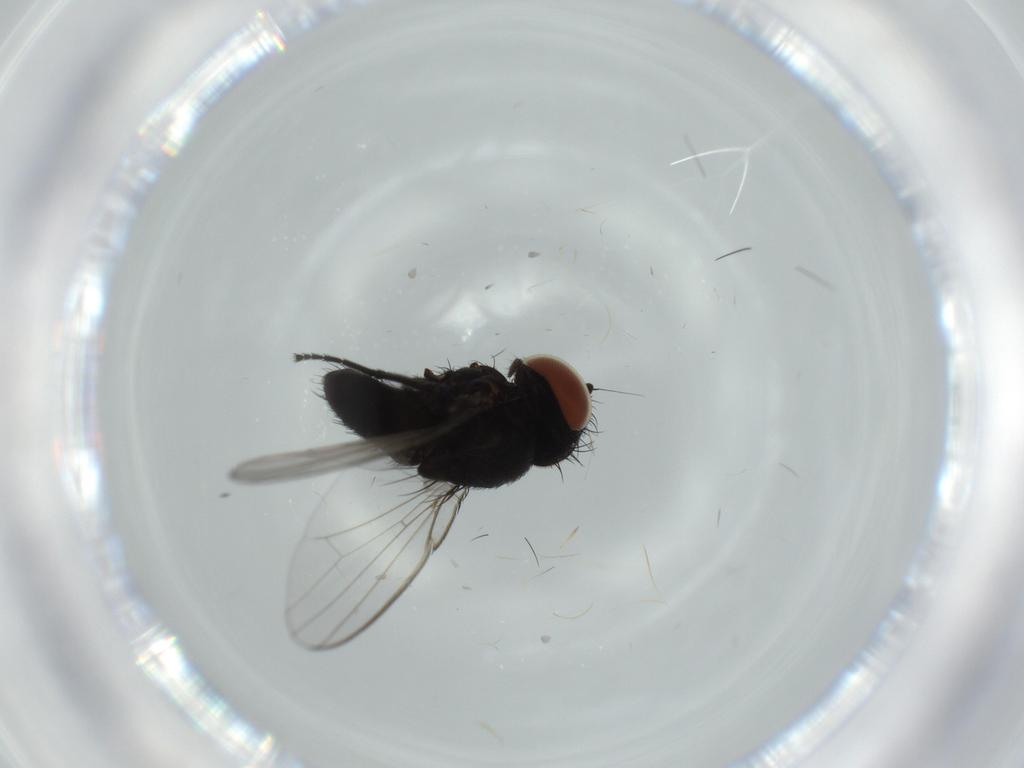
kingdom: Animalia
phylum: Arthropoda
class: Insecta
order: Diptera
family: Milichiidae
